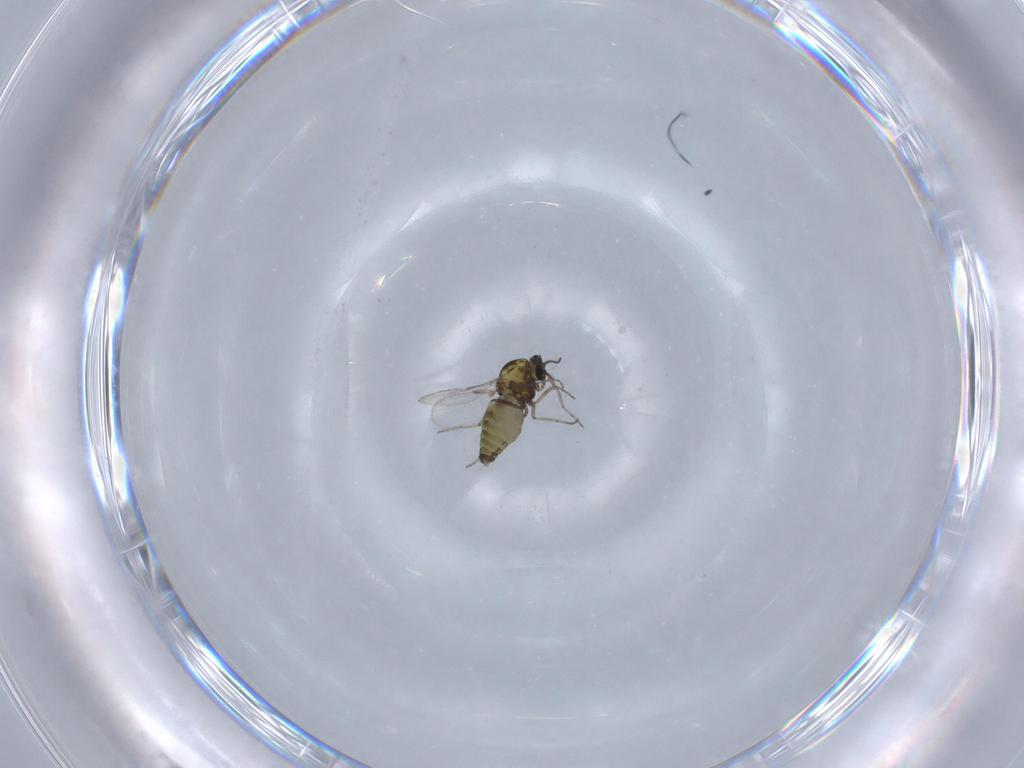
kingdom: Animalia
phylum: Arthropoda
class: Insecta
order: Diptera
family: Ceratopogonidae
